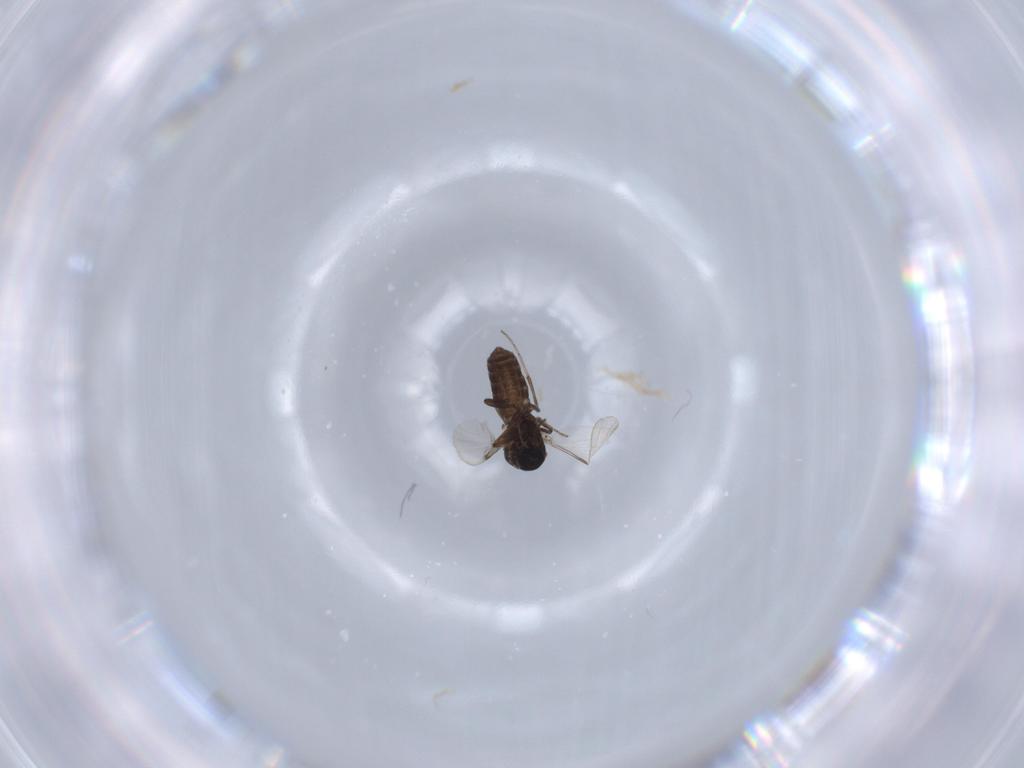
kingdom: Animalia
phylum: Arthropoda
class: Insecta
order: Diptera
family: Ceratopogonidae
